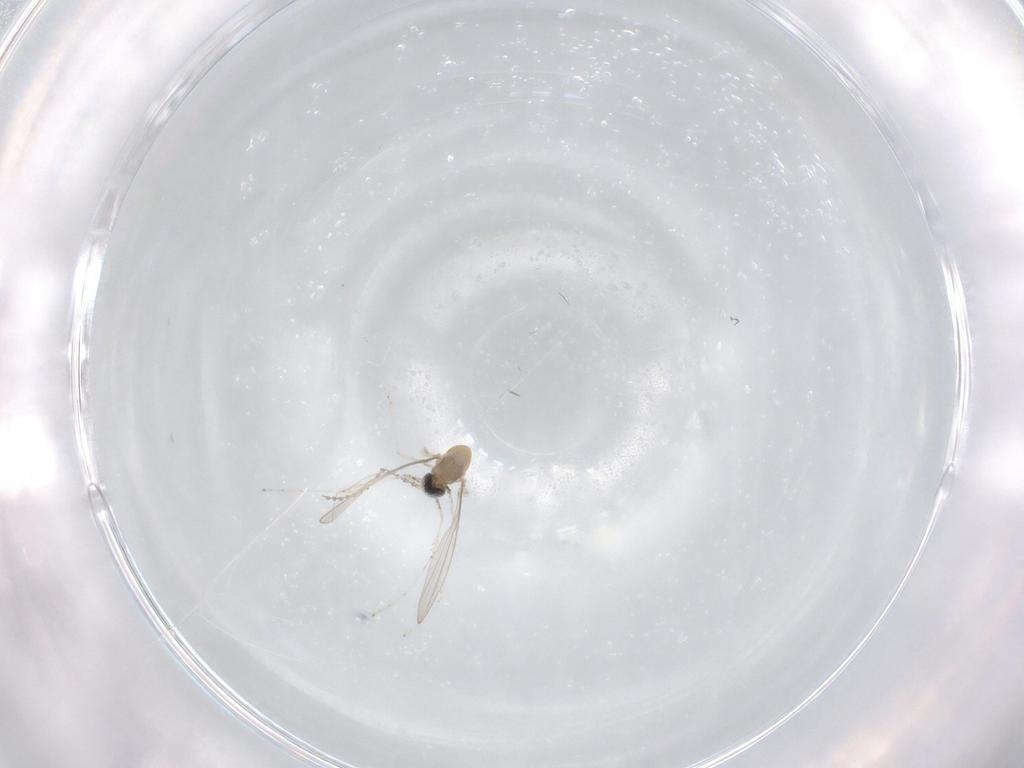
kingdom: Animalia
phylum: Arthropoda
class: Insecta
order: Diptera
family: Cecidomyiidae
